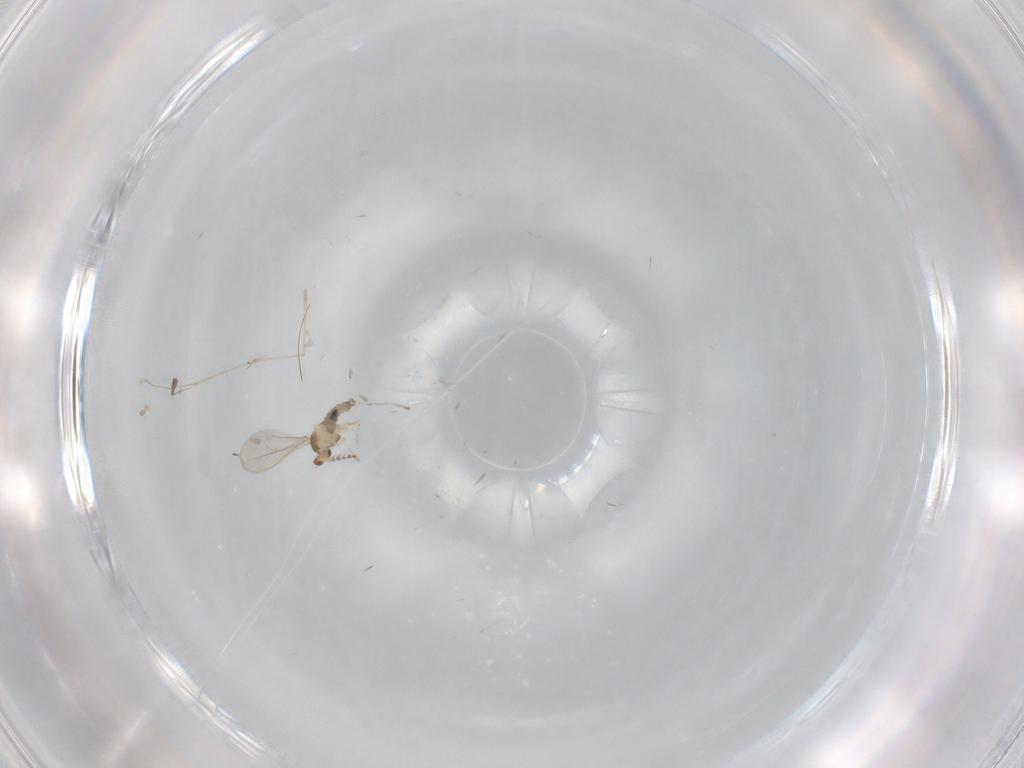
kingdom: Animalia
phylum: Arthropoda
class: Insecta
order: Diptera
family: Cecidomyiidae
